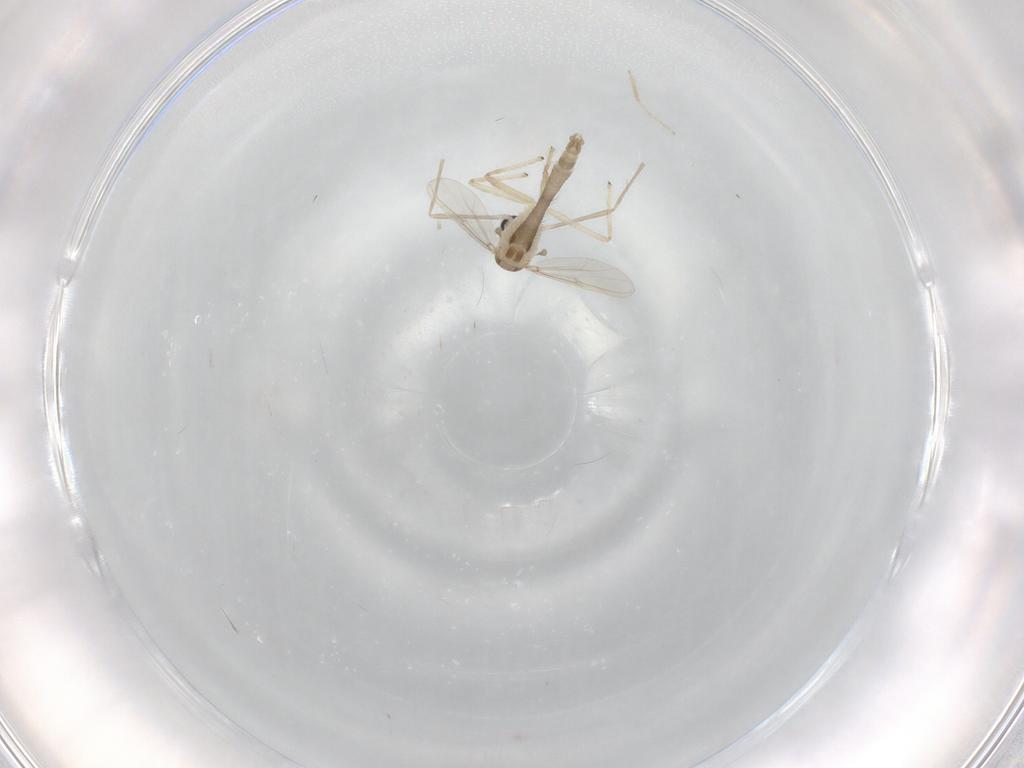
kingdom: Animalia
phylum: Arthropoda
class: Insecta
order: Diptera
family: Chironomidae
